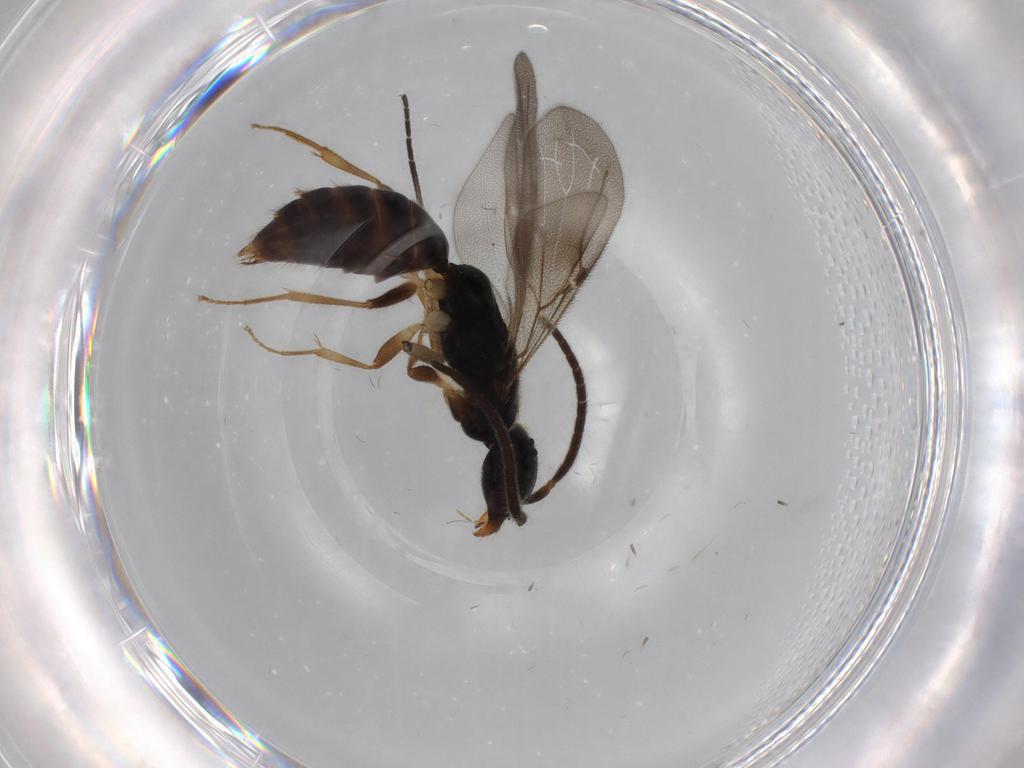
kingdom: Animalia
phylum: Arthropoda
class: Insecta
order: Hymenoptera
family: Bethylidae
